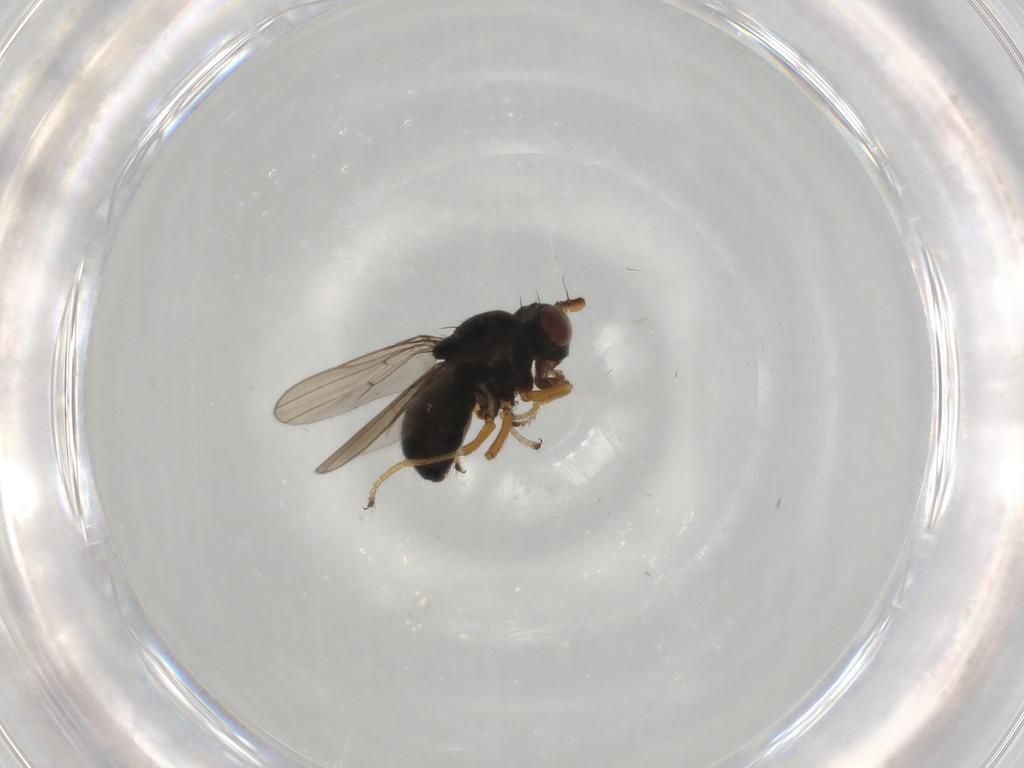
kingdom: Animalia
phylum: Arthropoda
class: Insecta
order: Diptera
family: Ephydridae
